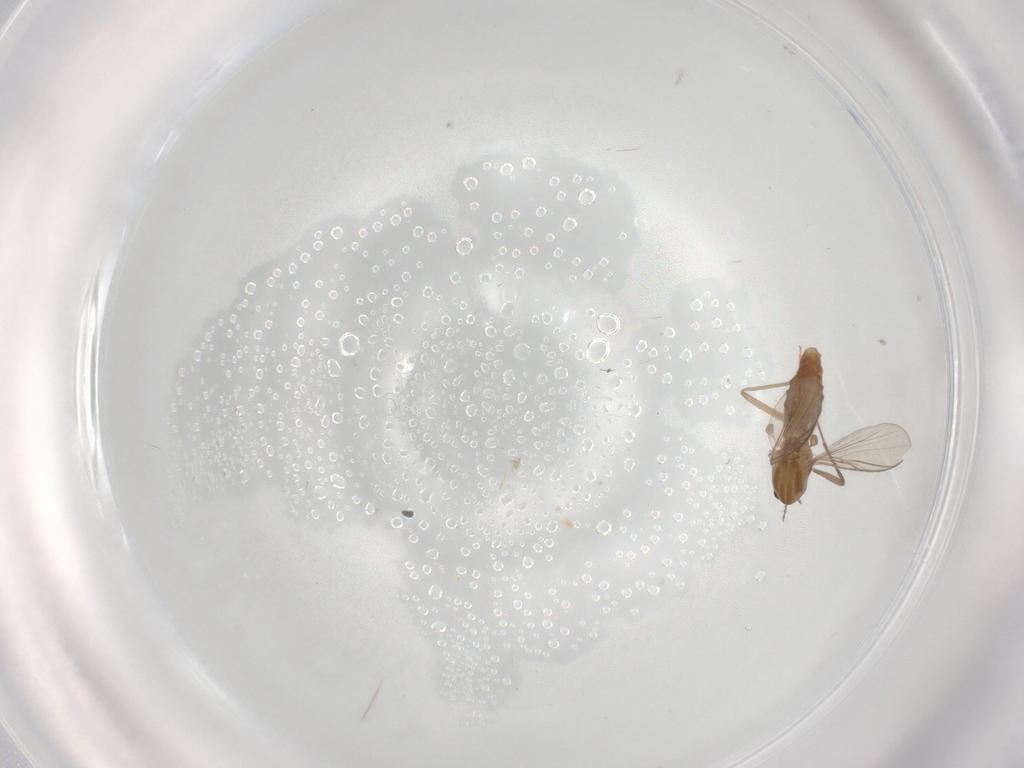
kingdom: Animalia
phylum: Arthropoda
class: Insecta
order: Diptera
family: Chironomidae
